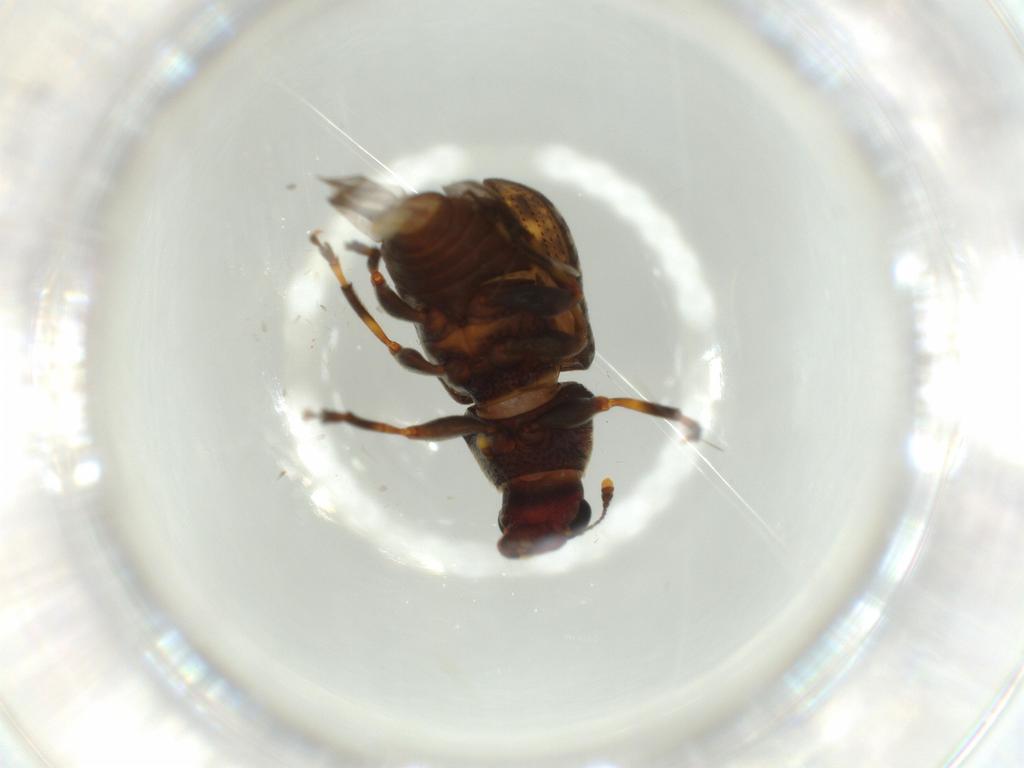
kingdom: Animalia
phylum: Arthropoda
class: Insecta
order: Coleoptera
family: Anthribidae
